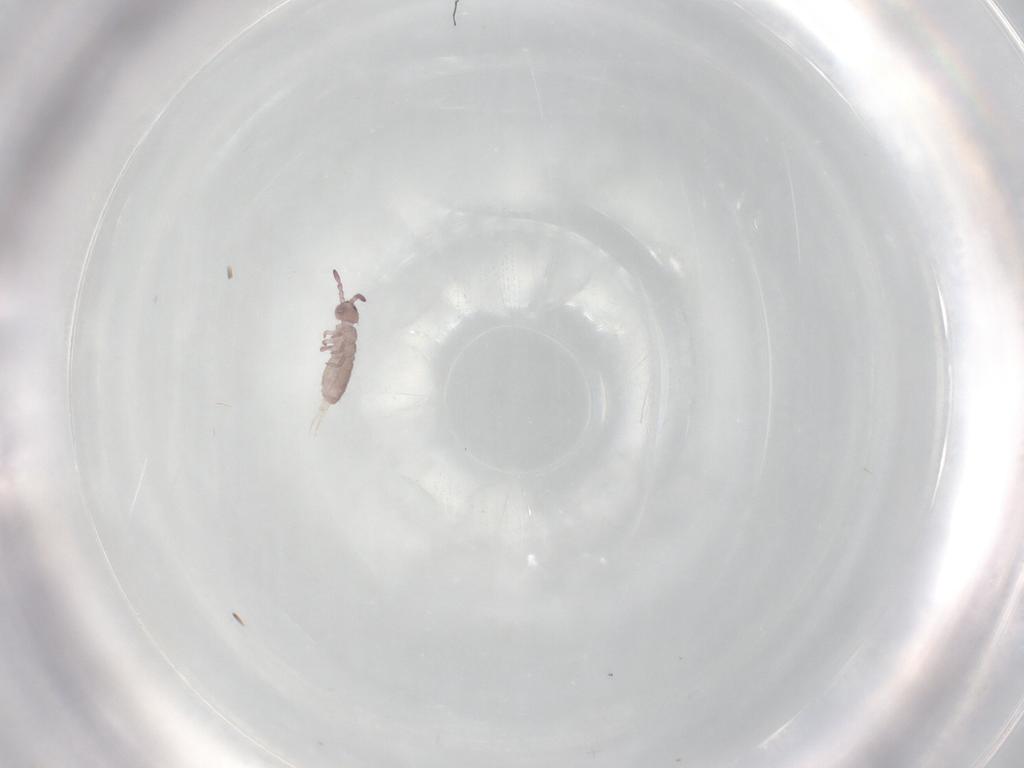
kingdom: Animalia
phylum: Arthropoda
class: Collembola
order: Entomobryomorpha
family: Isotomidae
